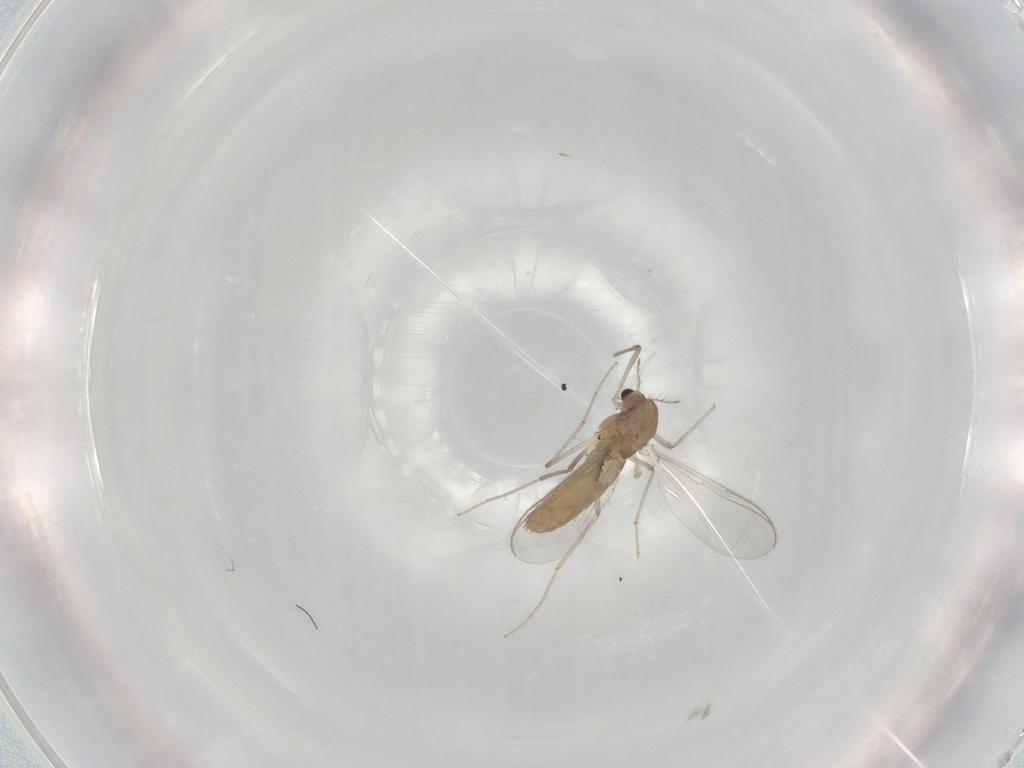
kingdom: Animalia
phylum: Arthropoda
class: Insecta
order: Diptera
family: Chironomidae
